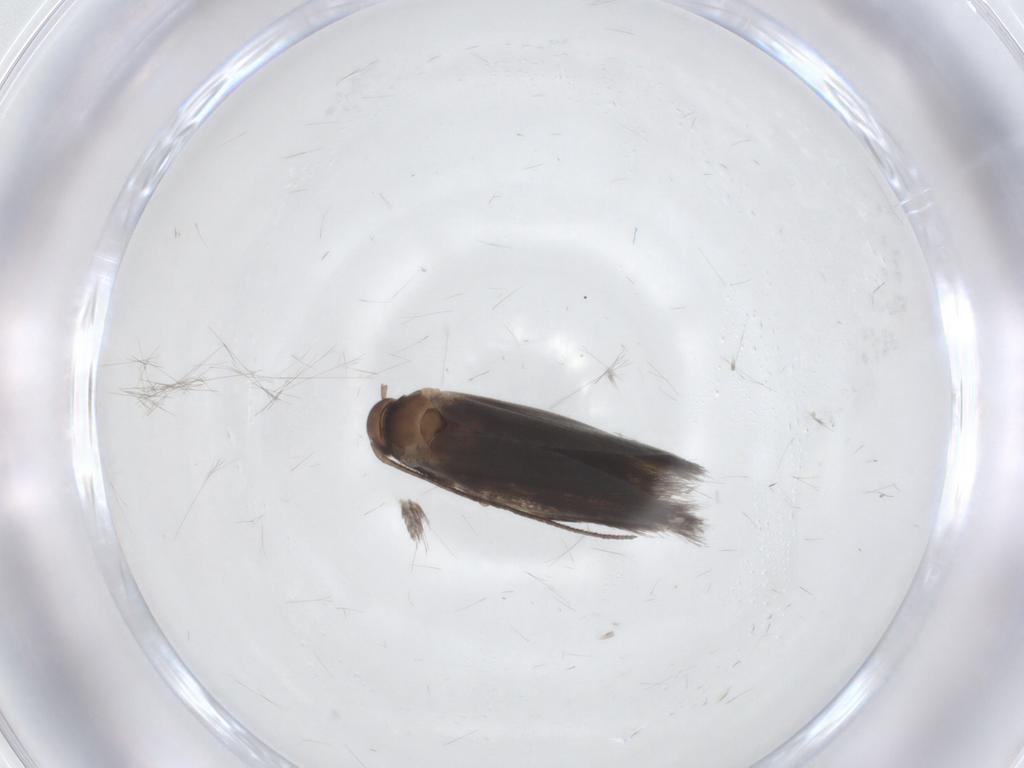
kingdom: Animalia
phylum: Arthropoda
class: Insecta
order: Lepidoptera
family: Elachistidae
